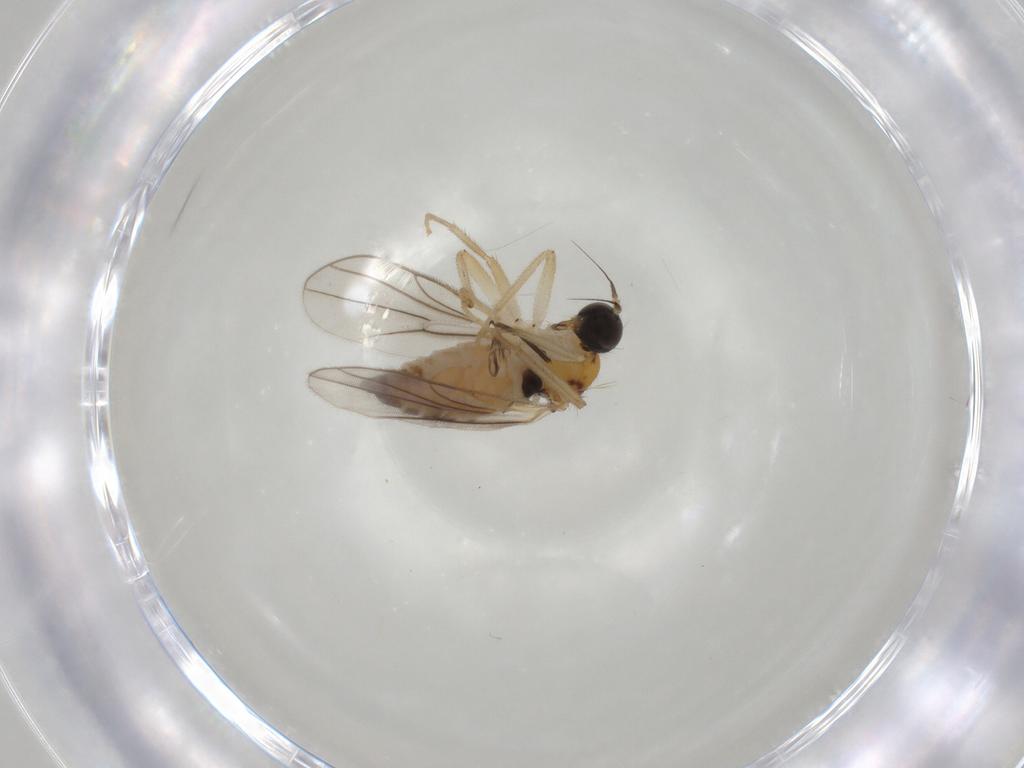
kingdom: Animalia
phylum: Arthropoda
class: Insecta
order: Diptera
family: Hybotidae
